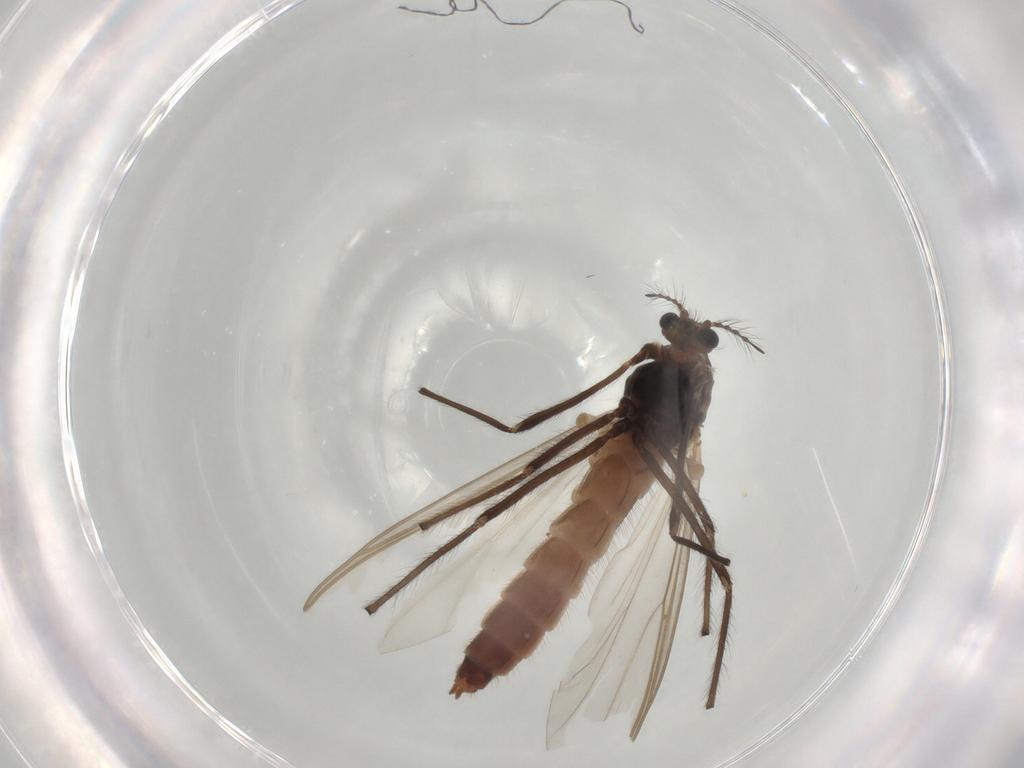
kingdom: Animalia
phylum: Arthropoda
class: Insecta
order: Diptera
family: Chironomidae
